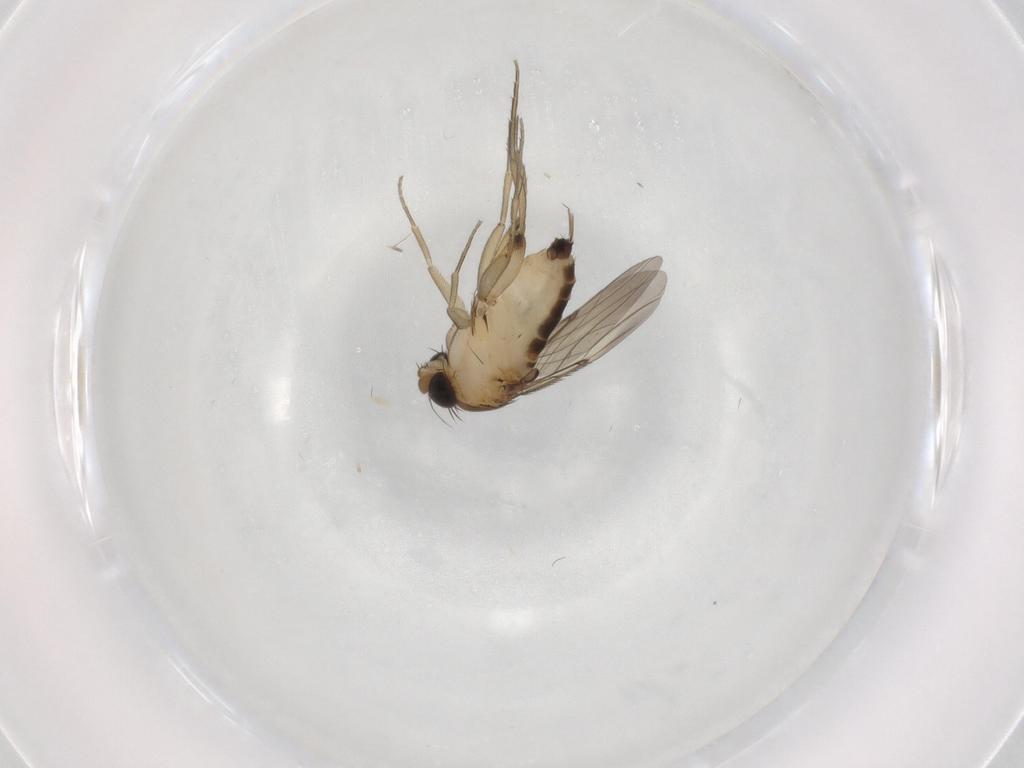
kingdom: Animalia
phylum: Arthropoda
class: Insecta
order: Diptera
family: Phoridae
